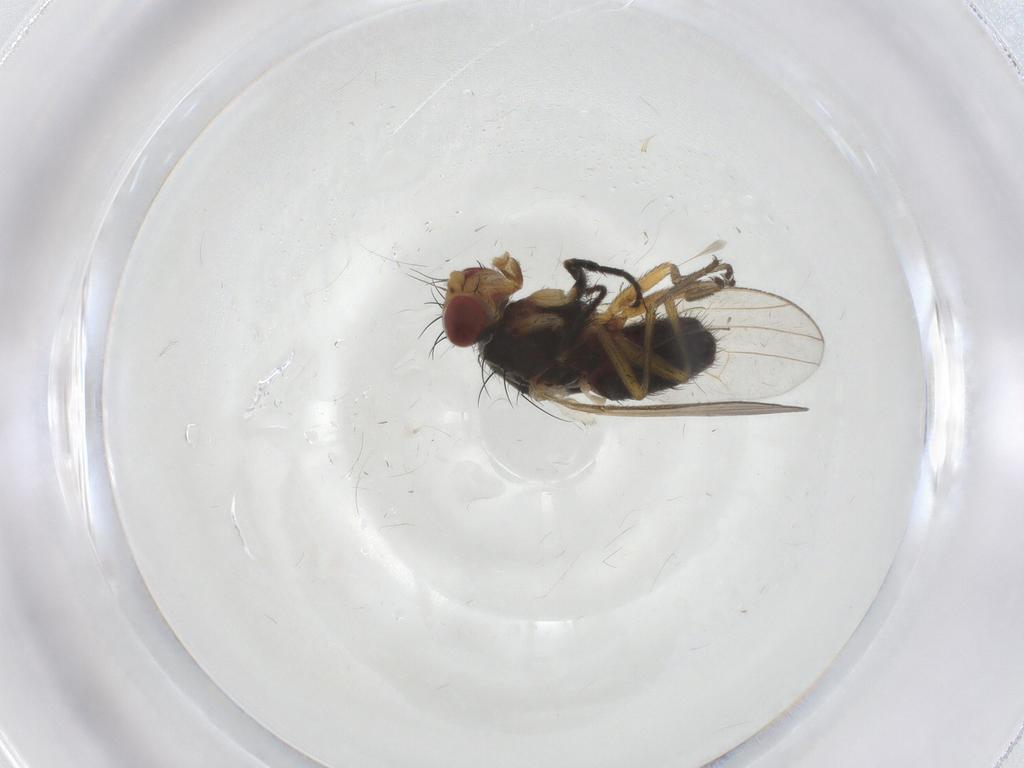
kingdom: Animalia
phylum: Arthropoda
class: Insecta
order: Diptera
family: Heleomyzidae
